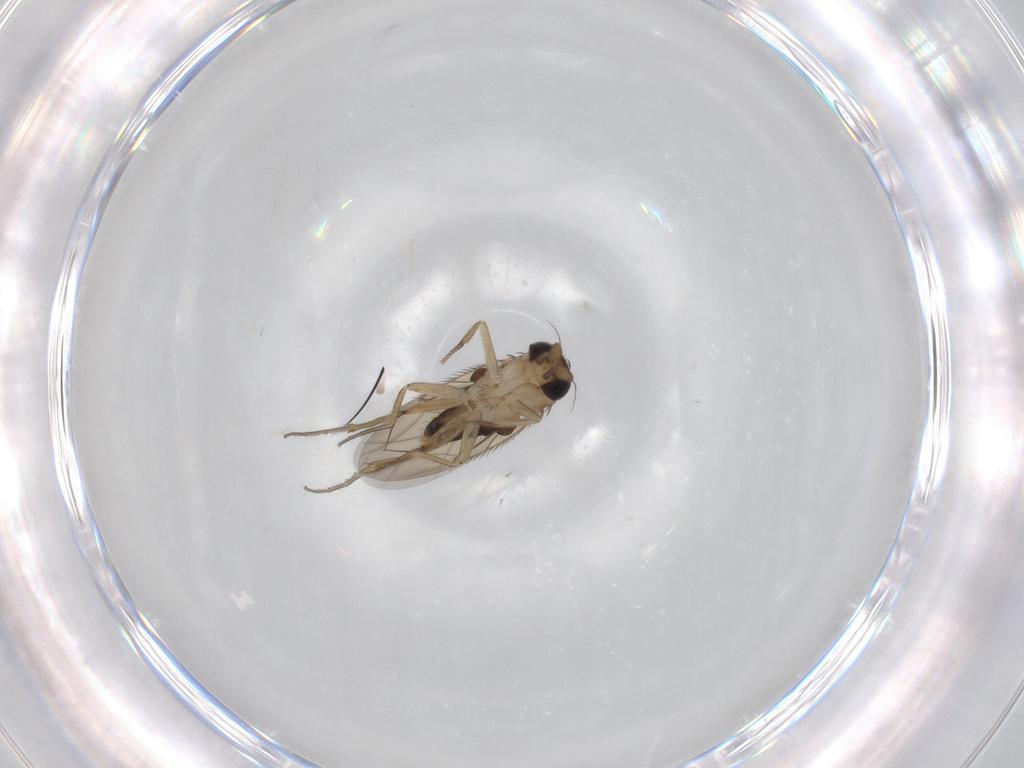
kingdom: Animalia
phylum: Arthropoda
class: Insecta
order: Diptera
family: Phoridae
